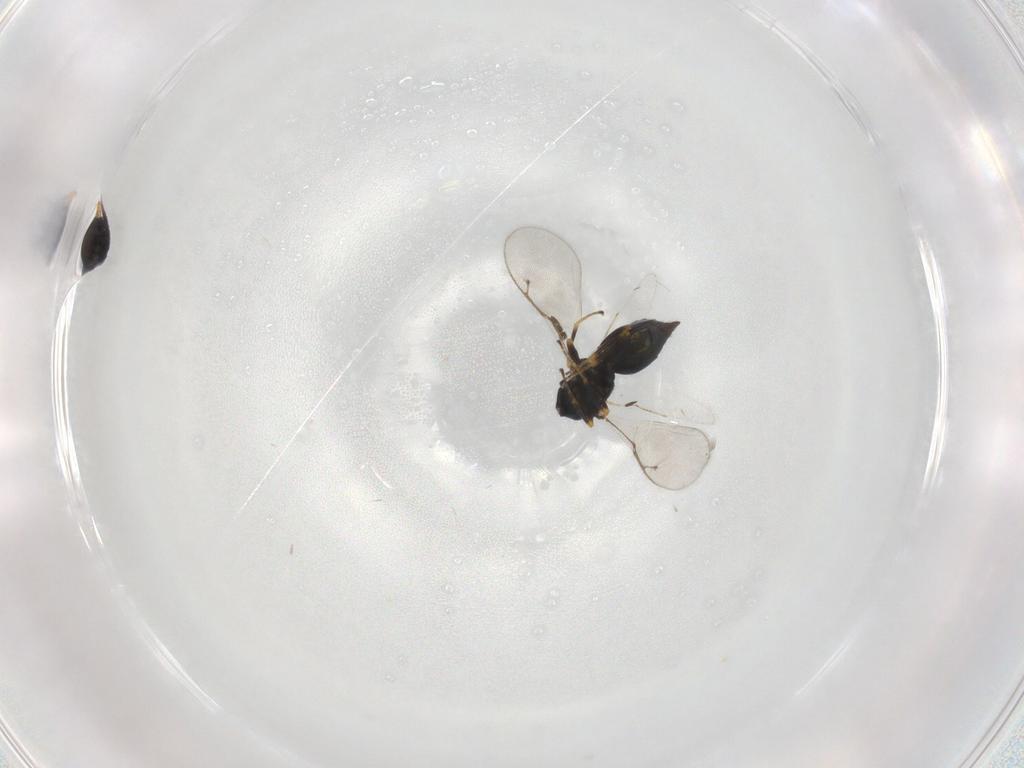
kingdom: Animalia
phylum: Arthropoda
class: Insecta
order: Hymenoptera
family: Pteromalidae
